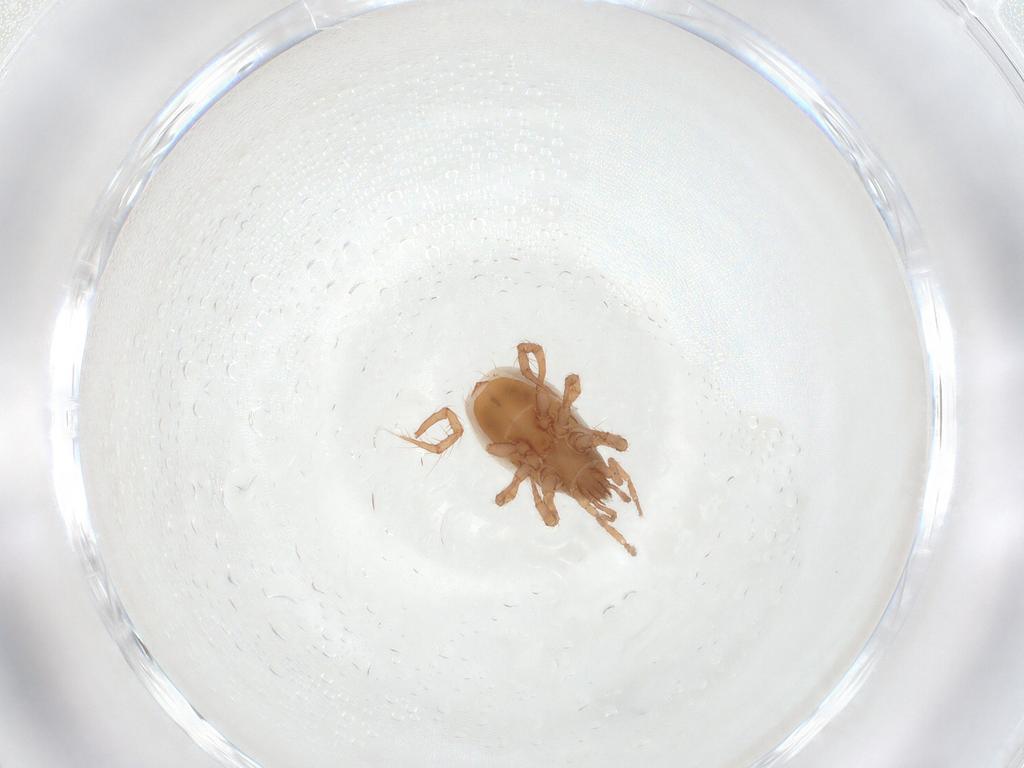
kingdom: Animalia
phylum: Arthropoda
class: Arachnida
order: Mesostigmata
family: Veigaiidae
